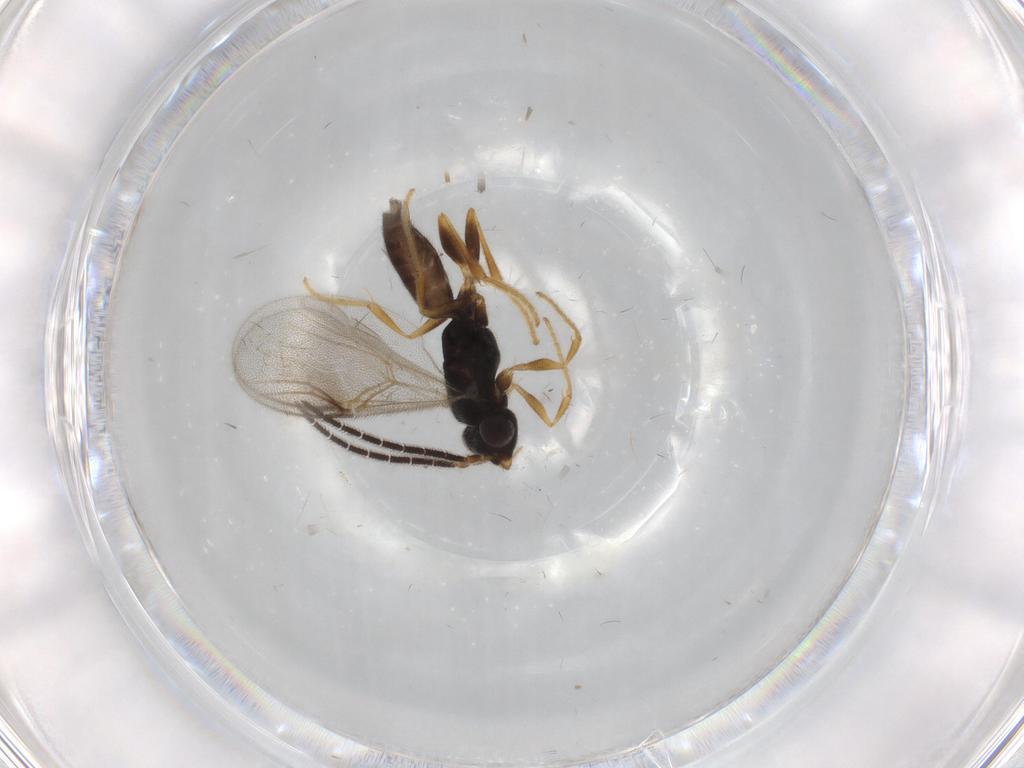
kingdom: Animalia
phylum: Arthropoda
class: Insecta
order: Hymenoptera
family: Dryinidae
